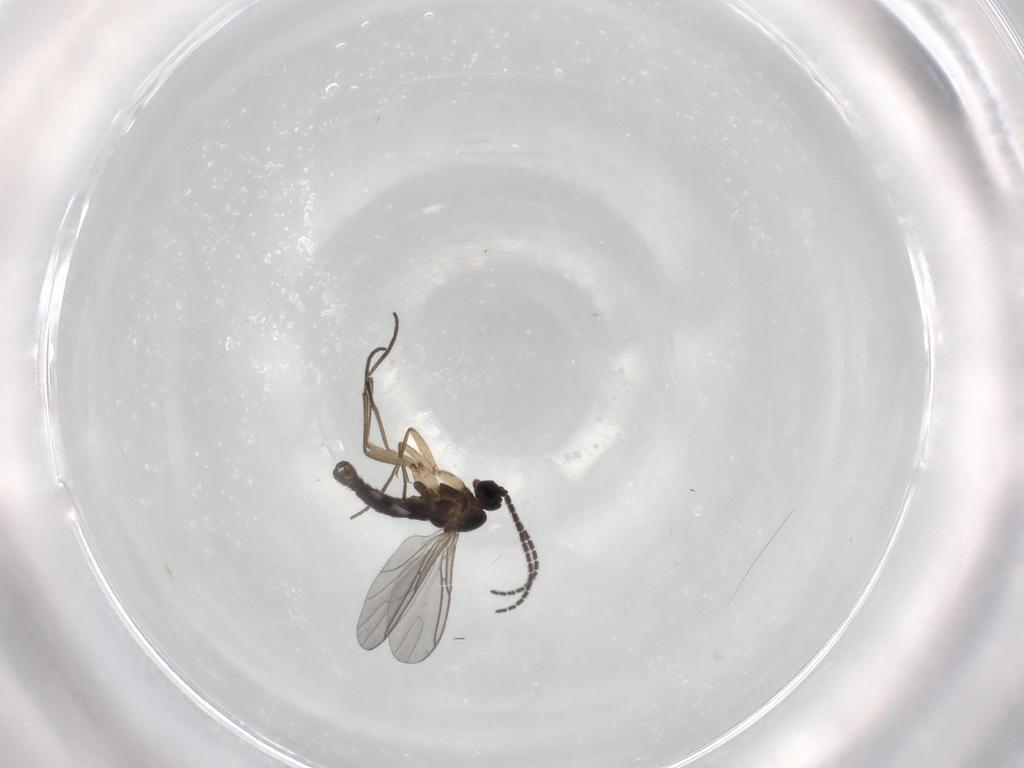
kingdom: Animalia
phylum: Arthropoda
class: Insecta
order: Diptera
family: Sciaridae
